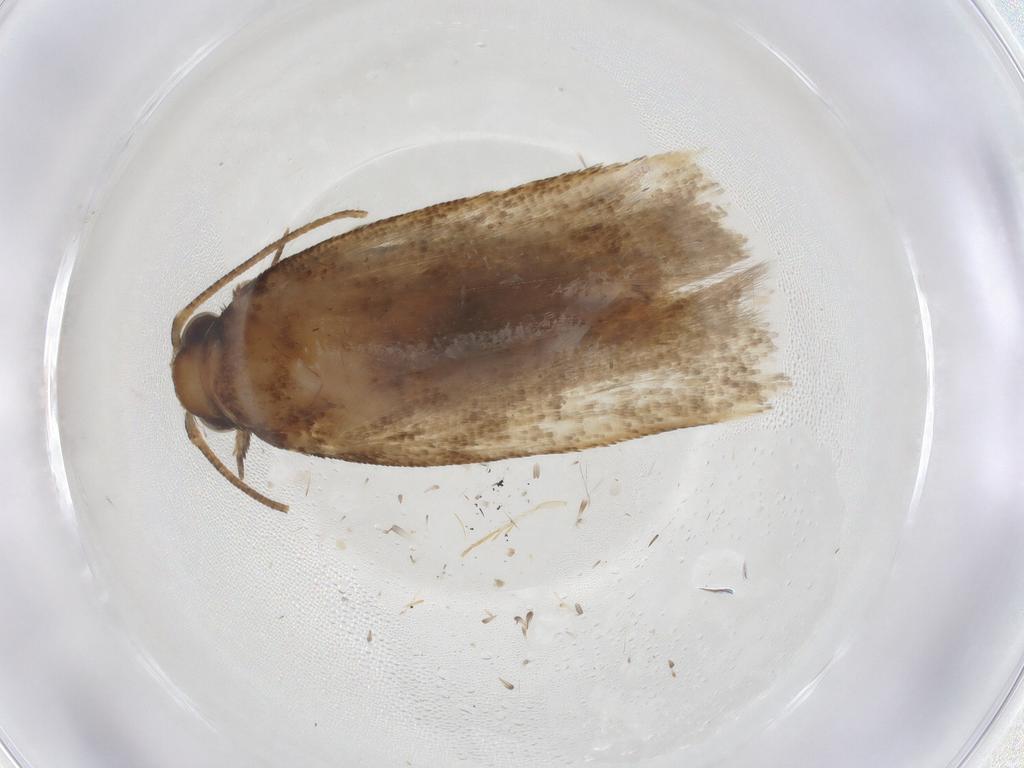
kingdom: Animalia
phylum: Arthropoda
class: Insecta
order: Lepidoptera
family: Gelechiidae
